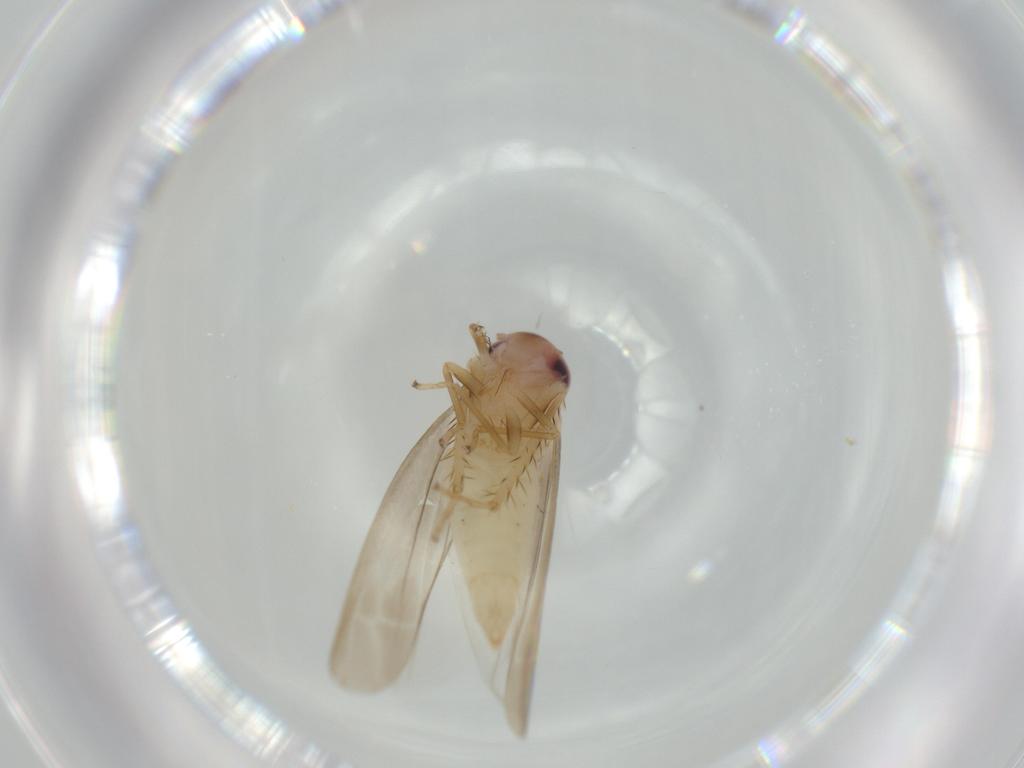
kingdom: Animalia
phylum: Arthropoda
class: Insecta
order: Hemiptera
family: Cicadellidae
